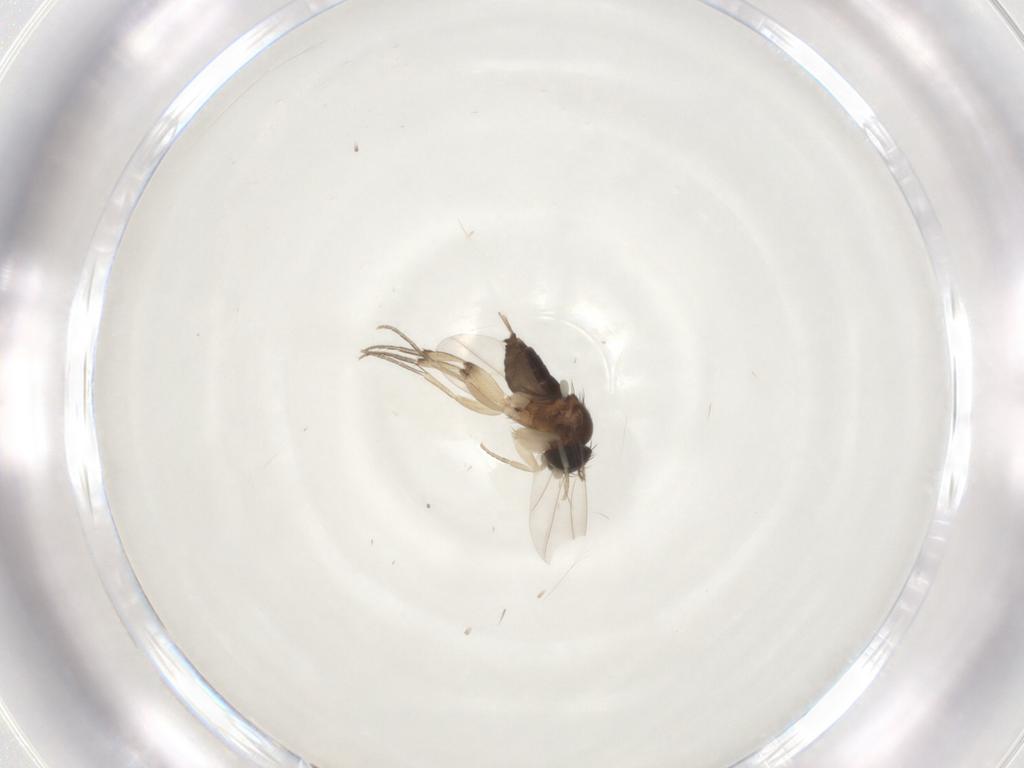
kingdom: Animalia
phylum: Arthropoda
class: Insecta
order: Diptera
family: Phoridae
